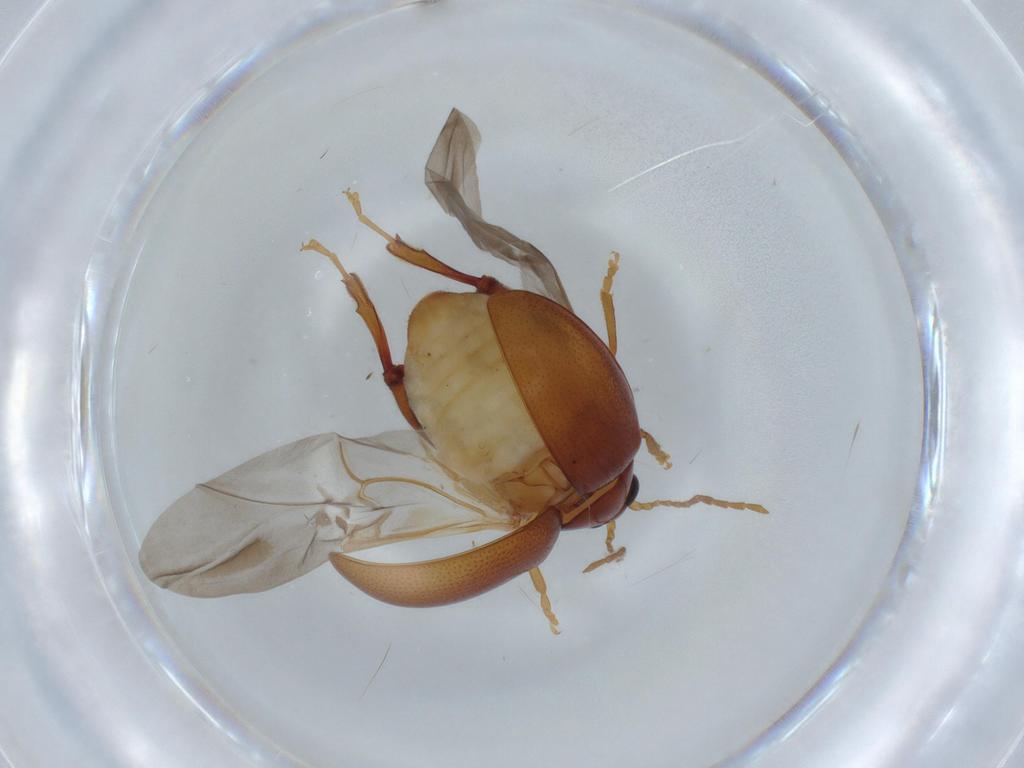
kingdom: Animalia
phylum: Arthropoda
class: Insecta
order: Coleoptera
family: Chrysomelidae
